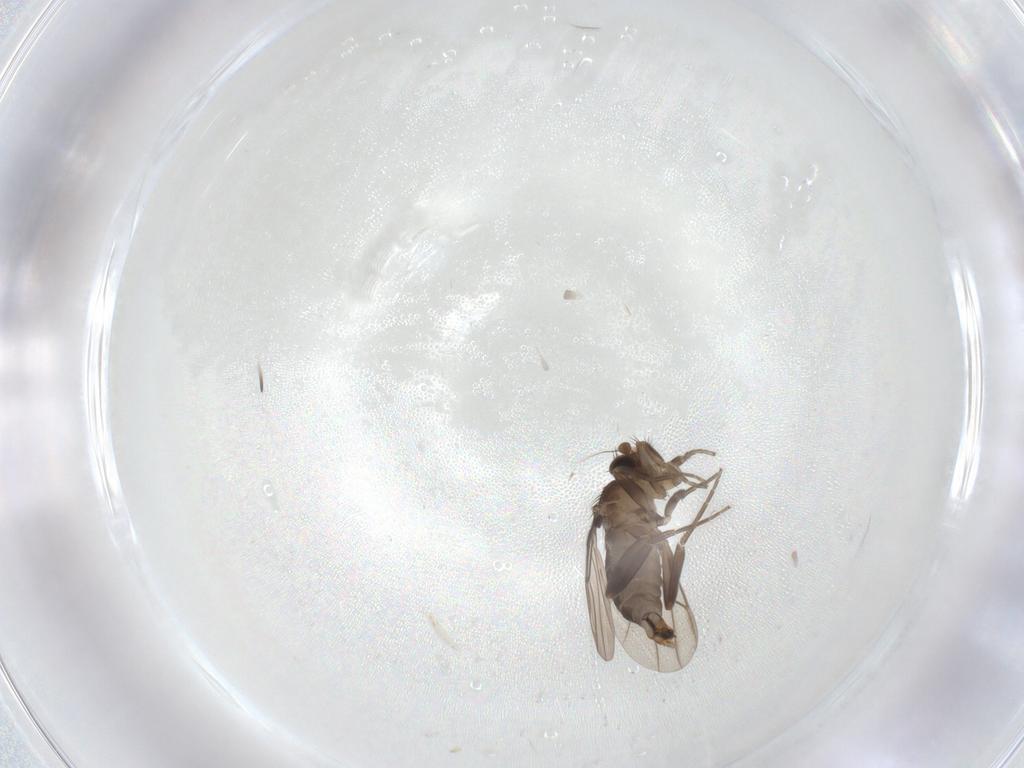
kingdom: Animalia
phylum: Arthropoda
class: Insecta
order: Diptera
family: Phoridae
